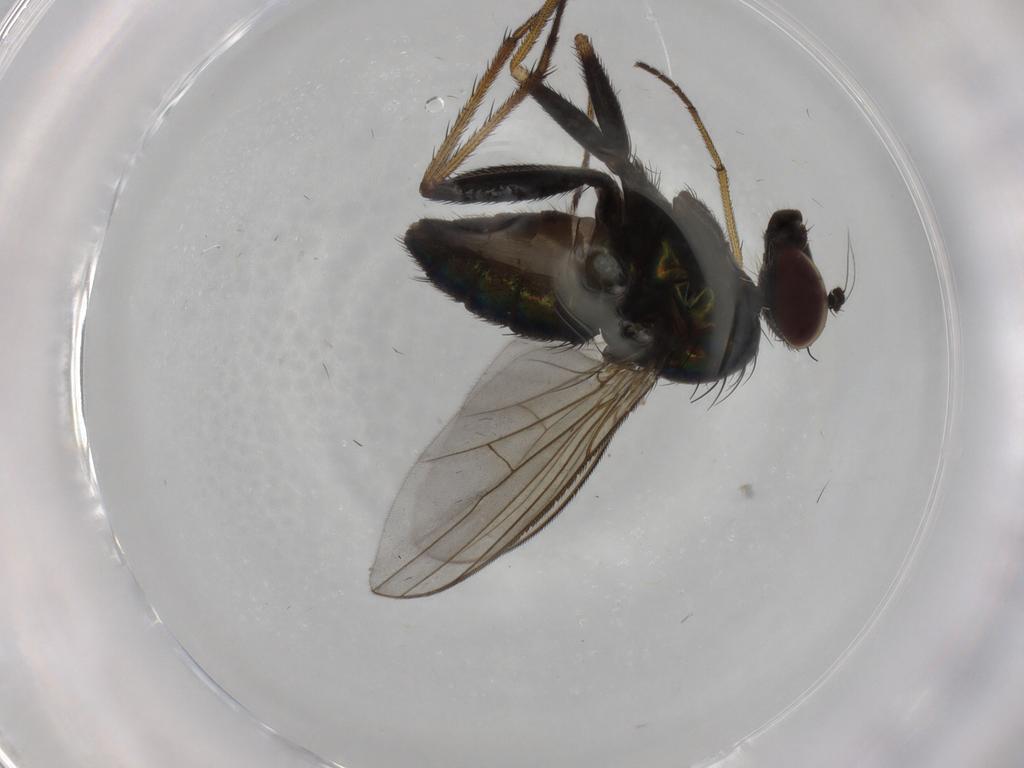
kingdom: Animalia
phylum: Arthropoda
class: Insecta
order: Diptera
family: Dolichopodidae
